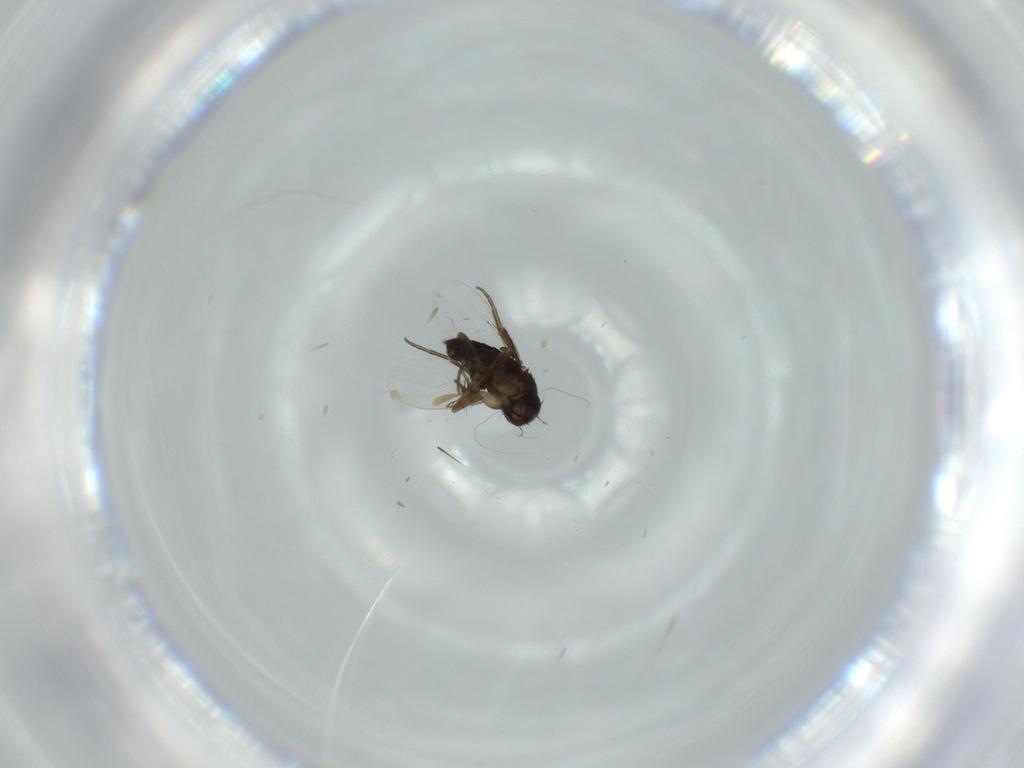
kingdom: Animalia
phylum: Arthropoda
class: Insecta
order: Diptera
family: Phoridae
